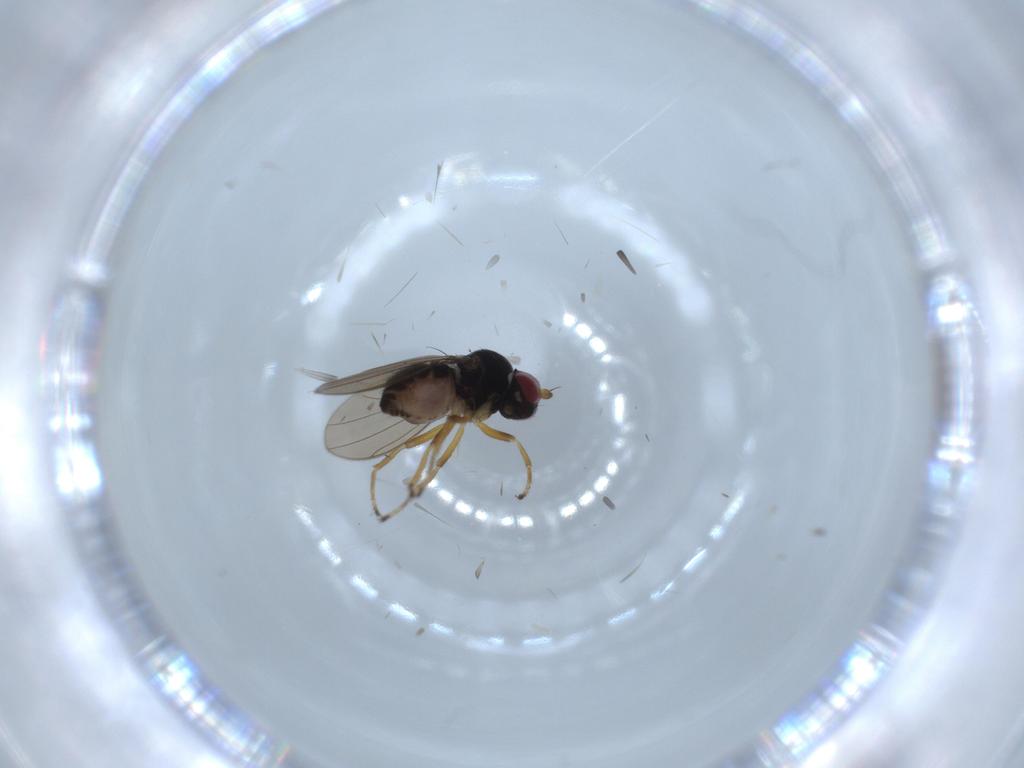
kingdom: Animalia
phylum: Arthropoda
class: Insecta
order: Diptera
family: Ephydridae
